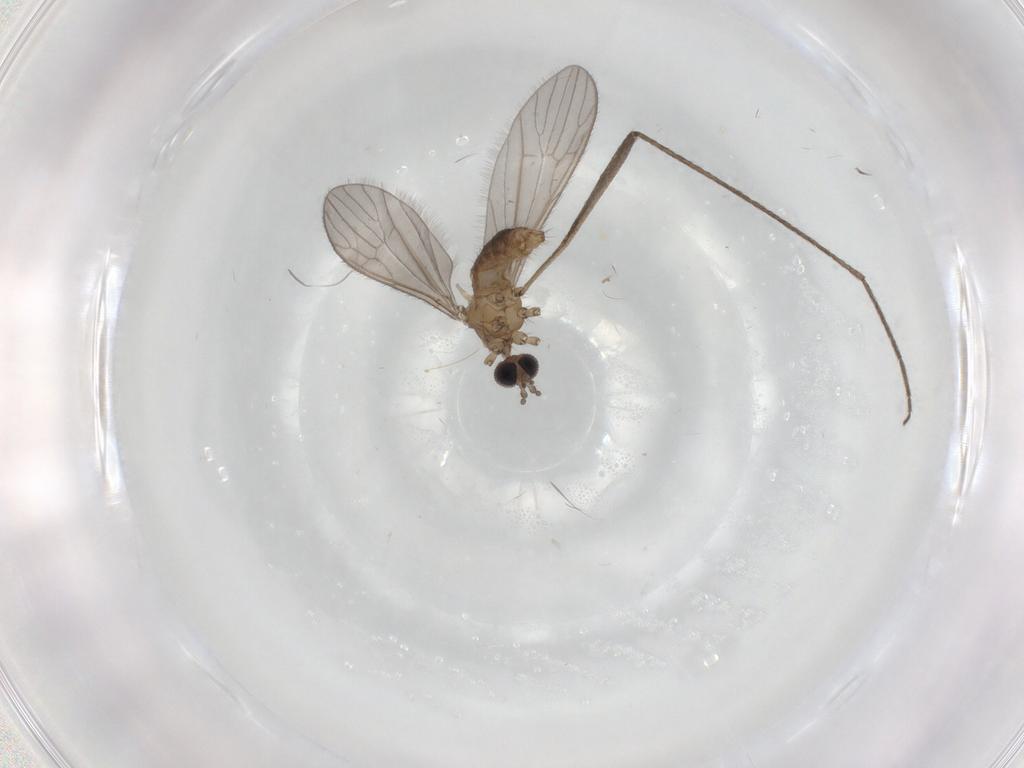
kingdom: Animalia
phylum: Arthropoda
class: Insecta
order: Diptera
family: Limoniidae
